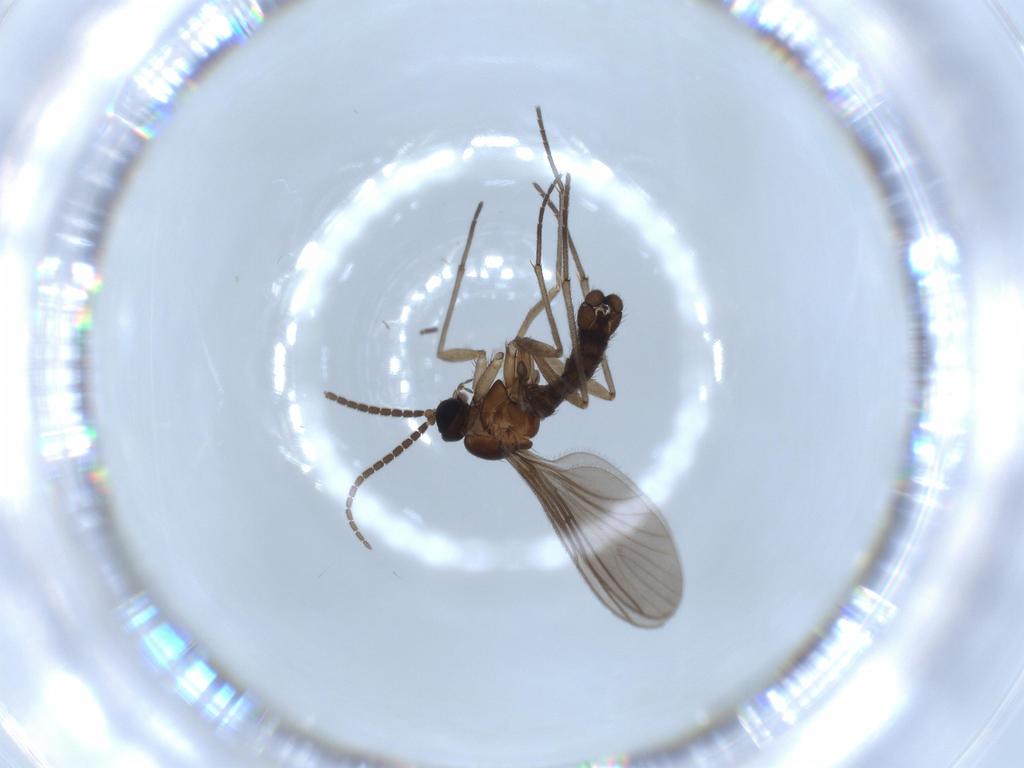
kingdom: Animalia
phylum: Arthropoda
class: Insecta
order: Diptera
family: Sciaridae
